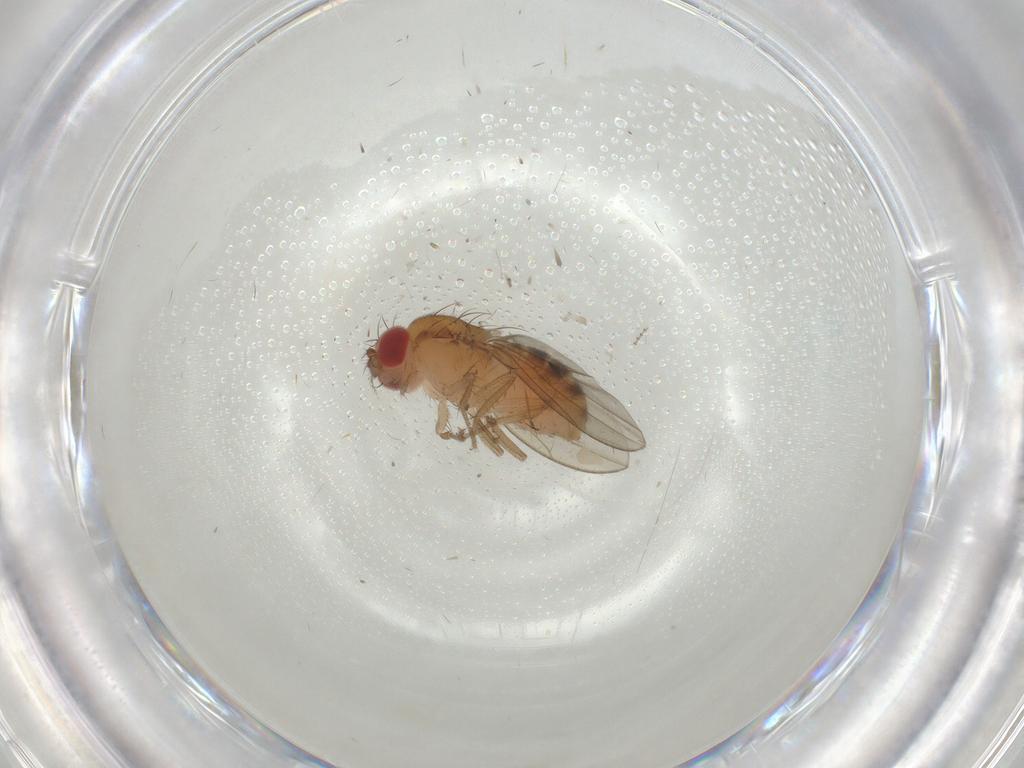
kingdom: Animalia
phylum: Arthropoda
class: Insecta
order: Diptera
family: Drosophilidae
